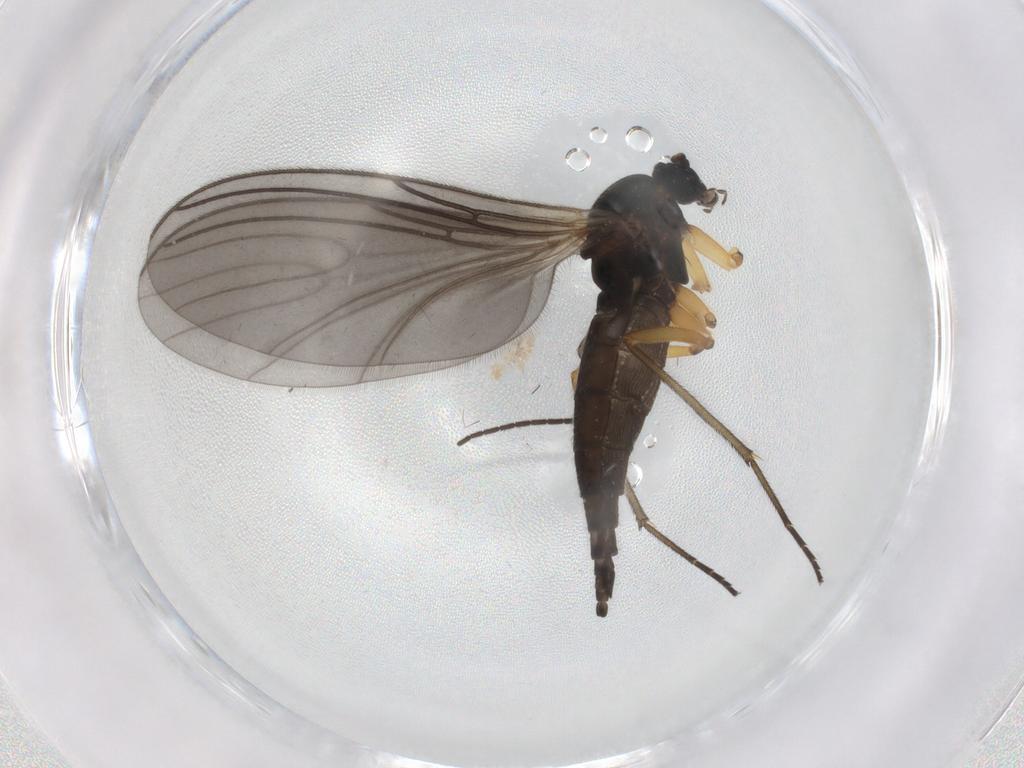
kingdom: Animalia
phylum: Arthropoda
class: Insecta
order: Diptera
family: Sciaridae
